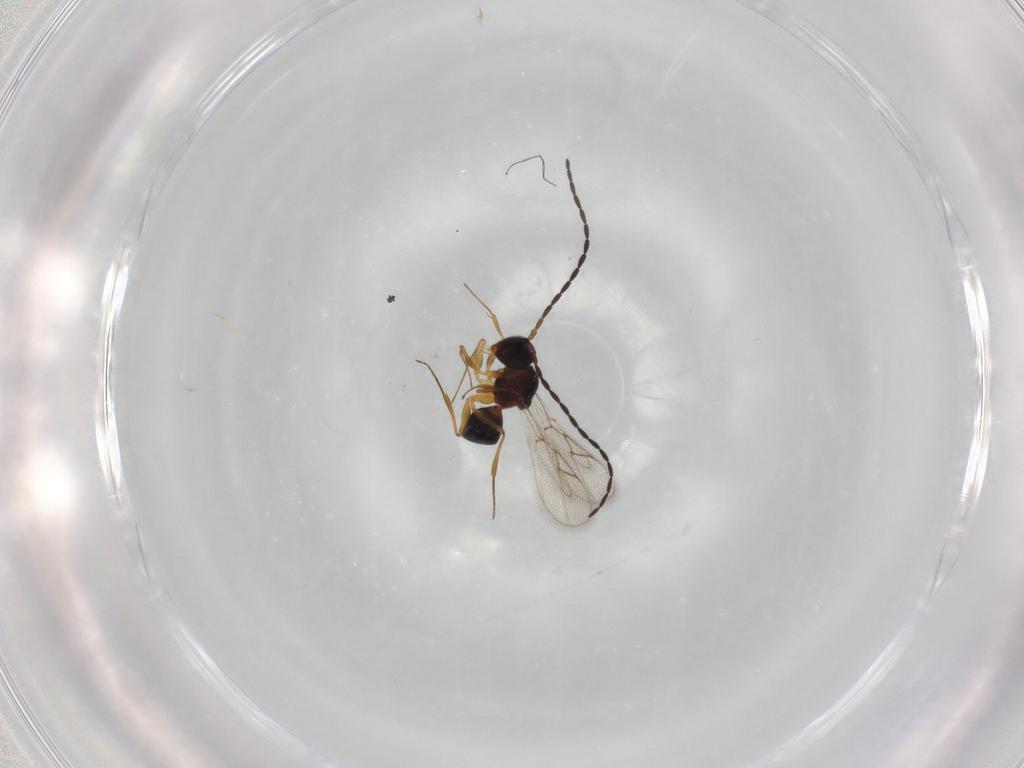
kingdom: Animalia
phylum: Arthropoda
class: Insecta
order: Hymenoptera
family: Figitidae
